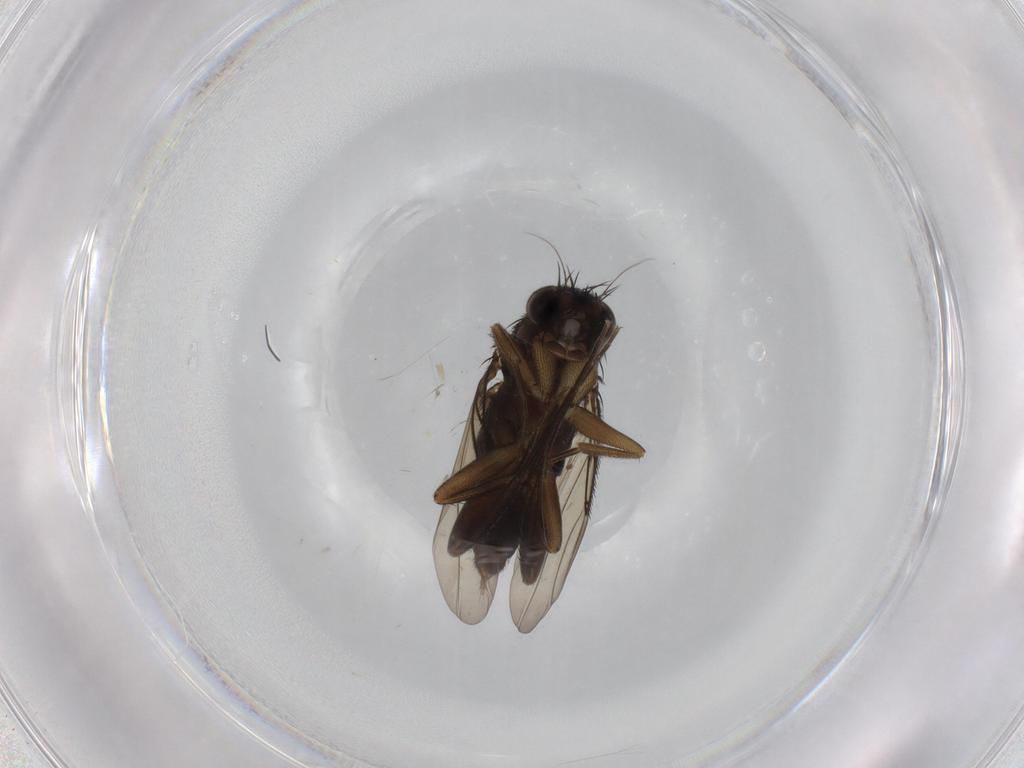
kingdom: Animalia
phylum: Arthropoda
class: Insecta
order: Diptera
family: Phoridae
